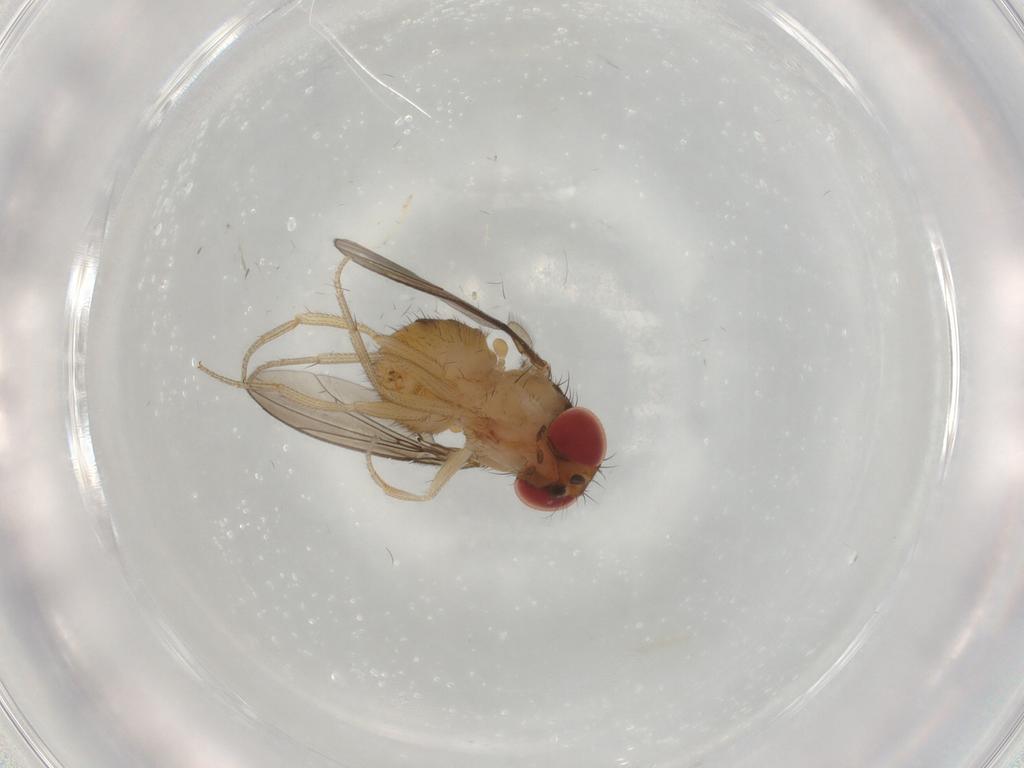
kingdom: Animalia
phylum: Arthropoda
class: Insecta
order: Diptera
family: Drosophilidae
